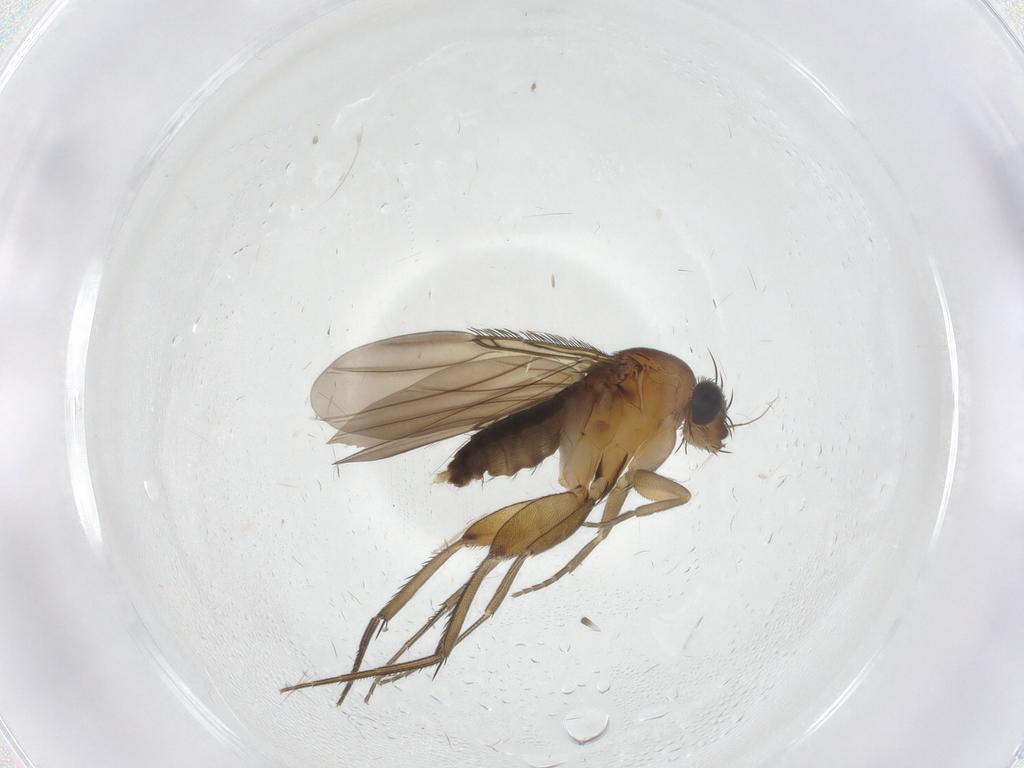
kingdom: Animalia
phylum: Arthropoda
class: Insecta
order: Diptera
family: Phoridae
